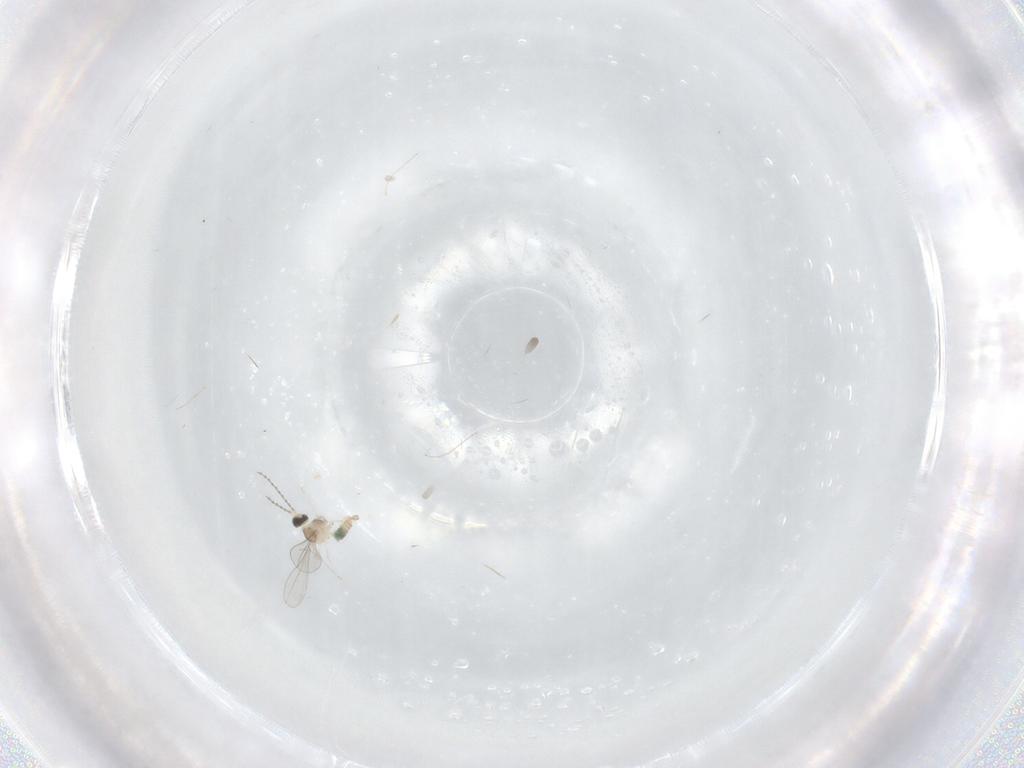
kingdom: Animalia
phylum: Arthropoda
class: Insecta
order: Diptera
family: Cecidomyiidae
